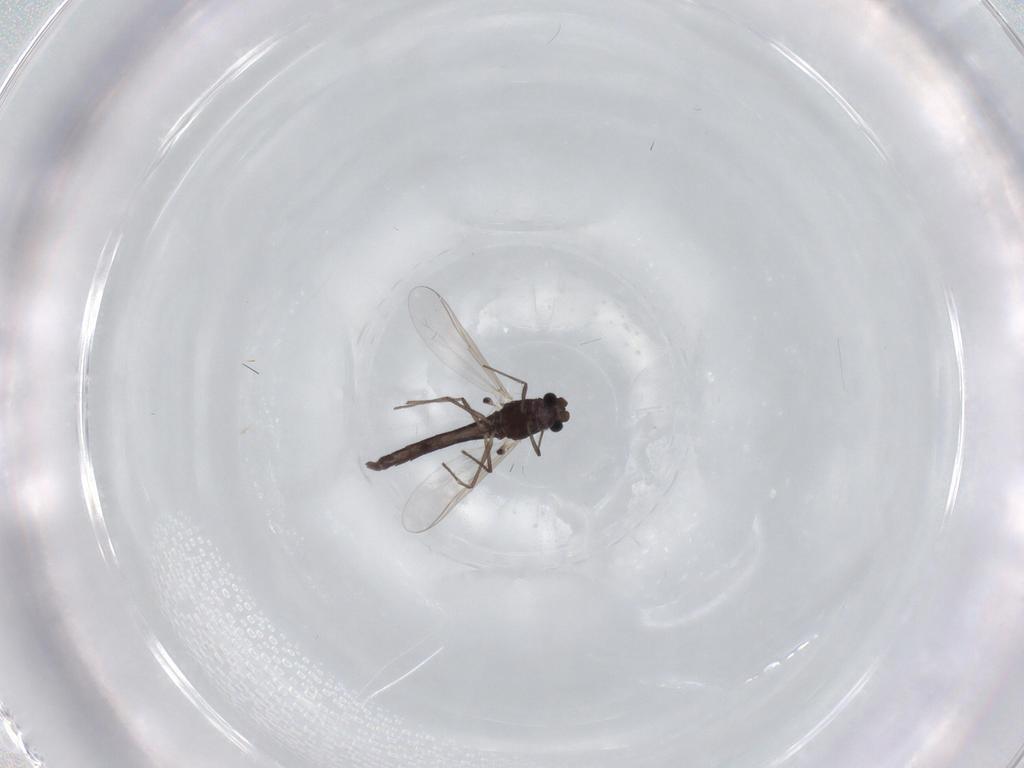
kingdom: Animalia
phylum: Arthropoda
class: Insecta
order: Diptera
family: Chironomidae
